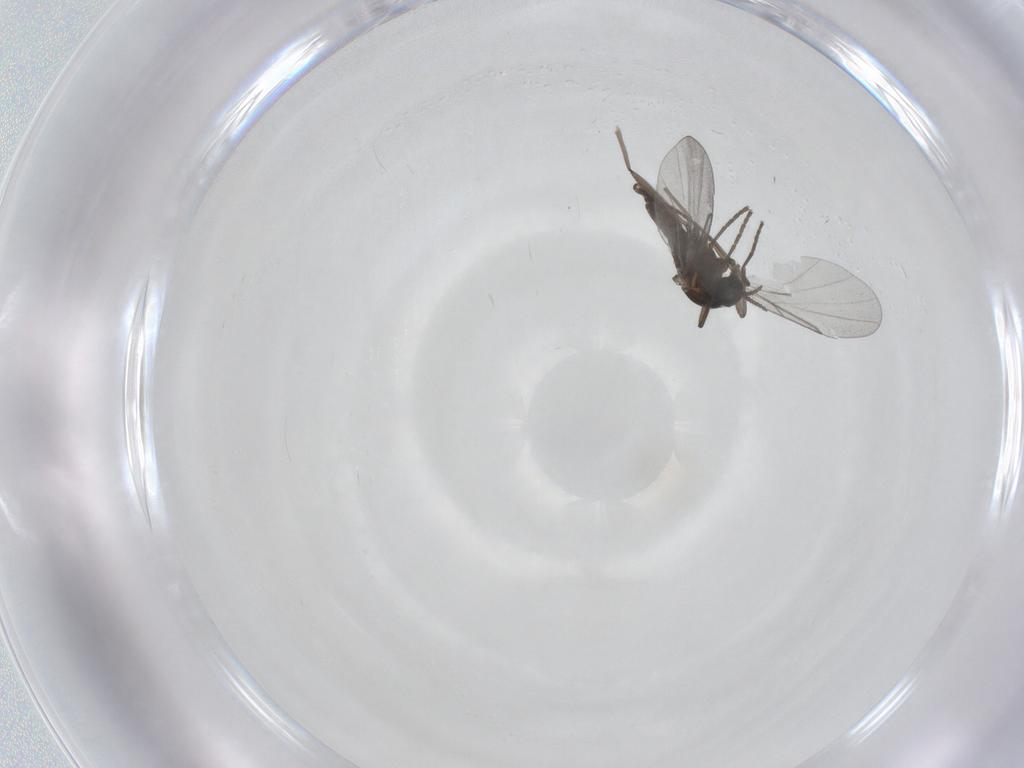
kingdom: Animalia
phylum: Arthropoda
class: Insecta
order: Diptera
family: Cecidomyiidae
